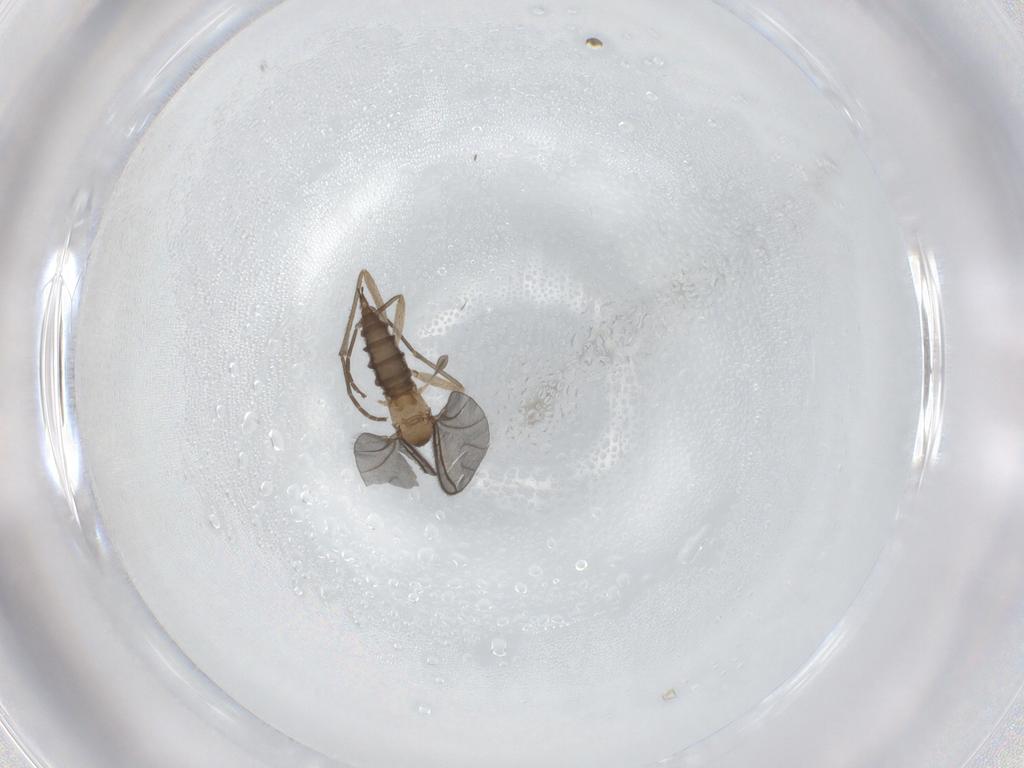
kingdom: Animalia
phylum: Arthropoda
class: Insecta
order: Diptera
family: Sciaridae
